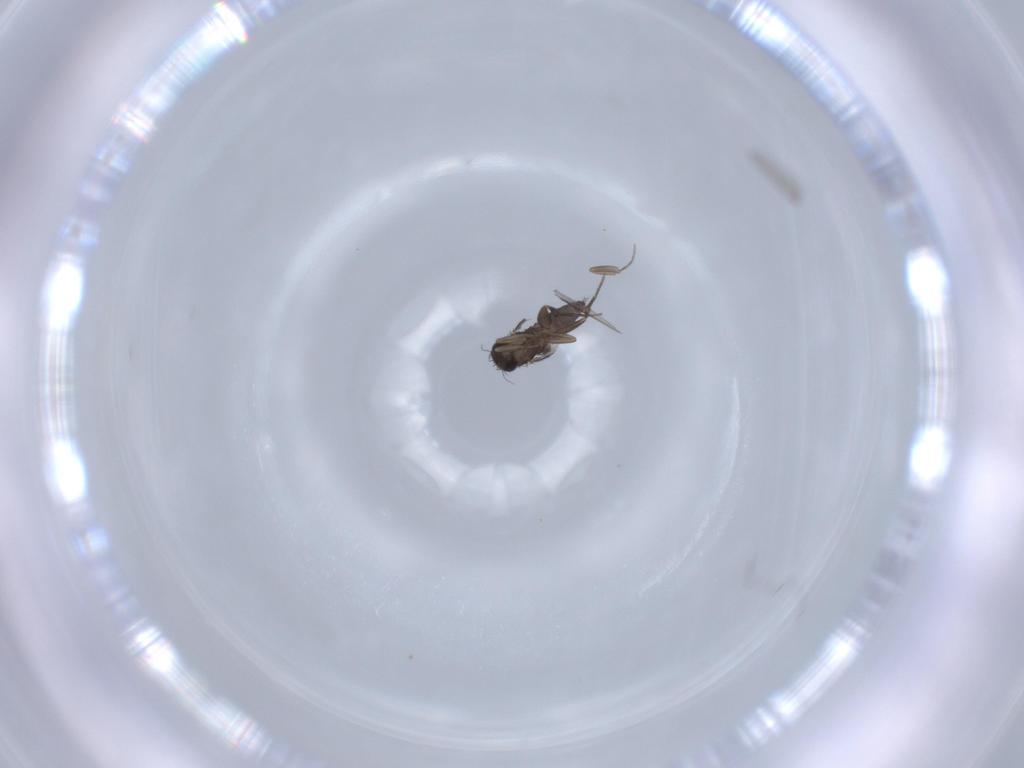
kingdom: Animalia
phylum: Arthropoda
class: Insecta
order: Diptera
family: Phoridae
